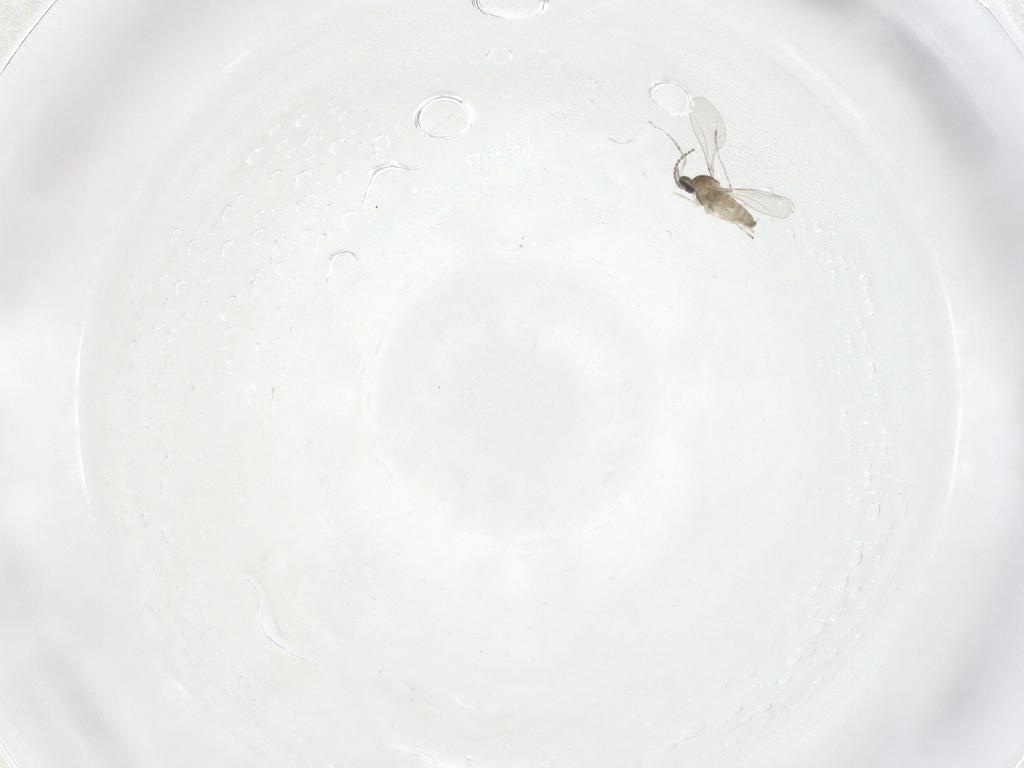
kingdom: Animalia
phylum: Arthropoda
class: Insecta
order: Diptera
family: Cecidomyiidae
